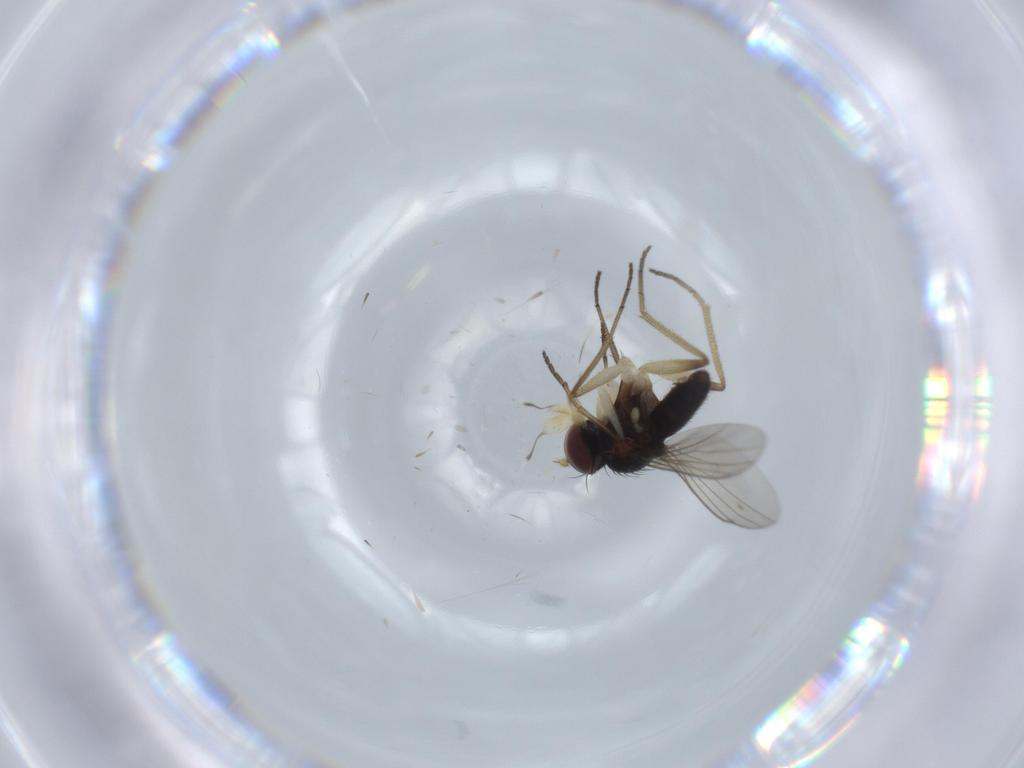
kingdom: Animalia
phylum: Arthropoda
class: Insecta
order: Diptera
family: Dolichopodidae
